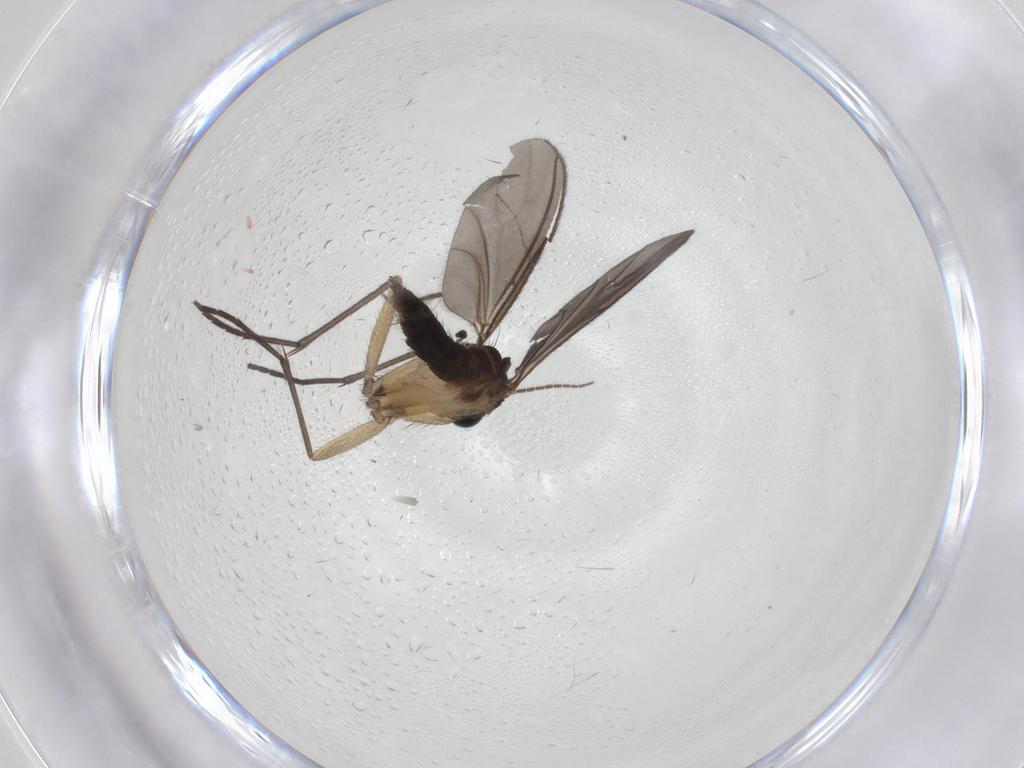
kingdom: Animalia
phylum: Arthropoda
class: Insecta
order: Diptera
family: Sciaridae
